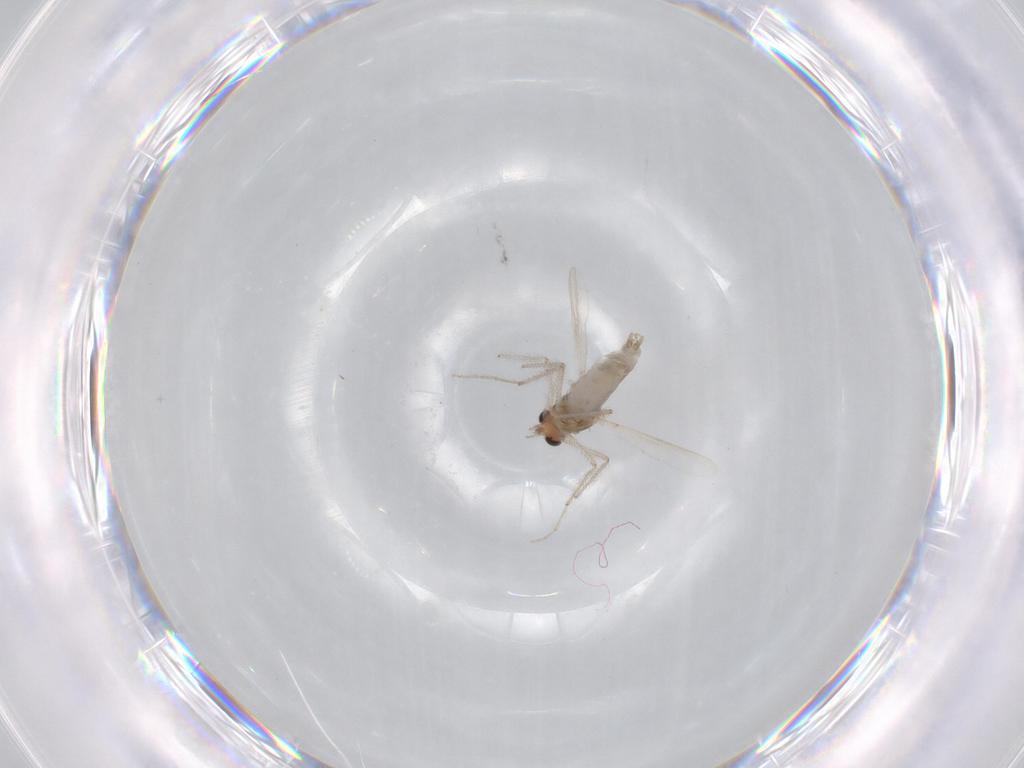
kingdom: Animalia
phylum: Arthropoda
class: Insecta
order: Diptera
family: Chironomidae
